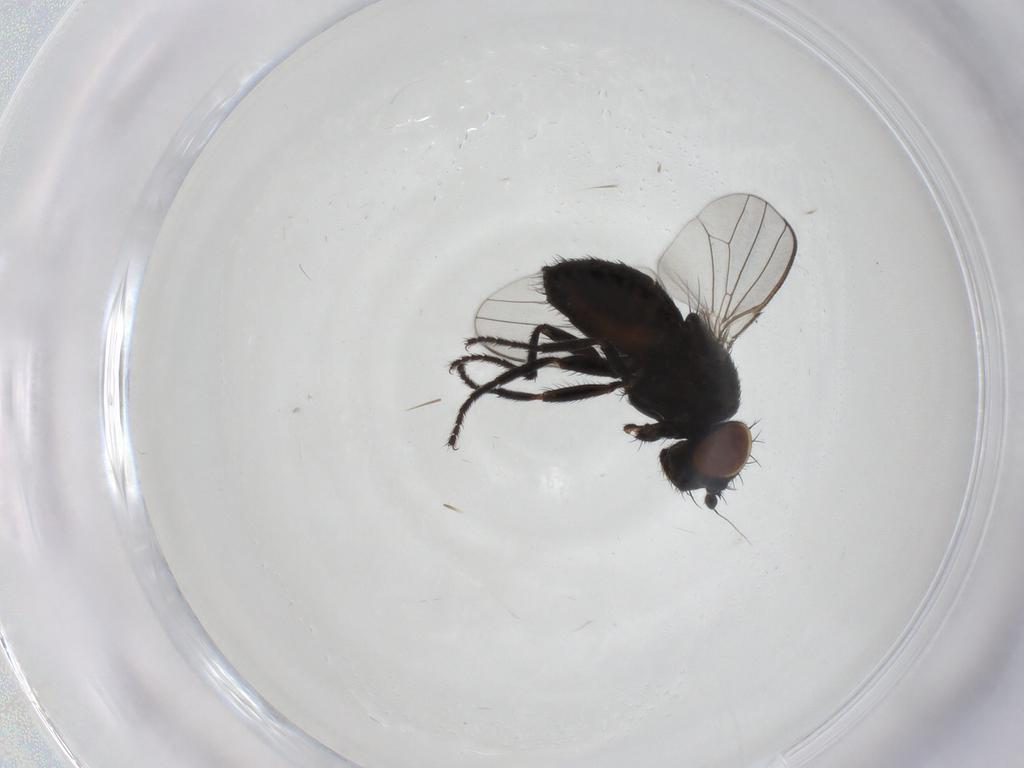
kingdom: Animalia
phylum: Arthropoda
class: Insecta
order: Diptera
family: Milichiidae
